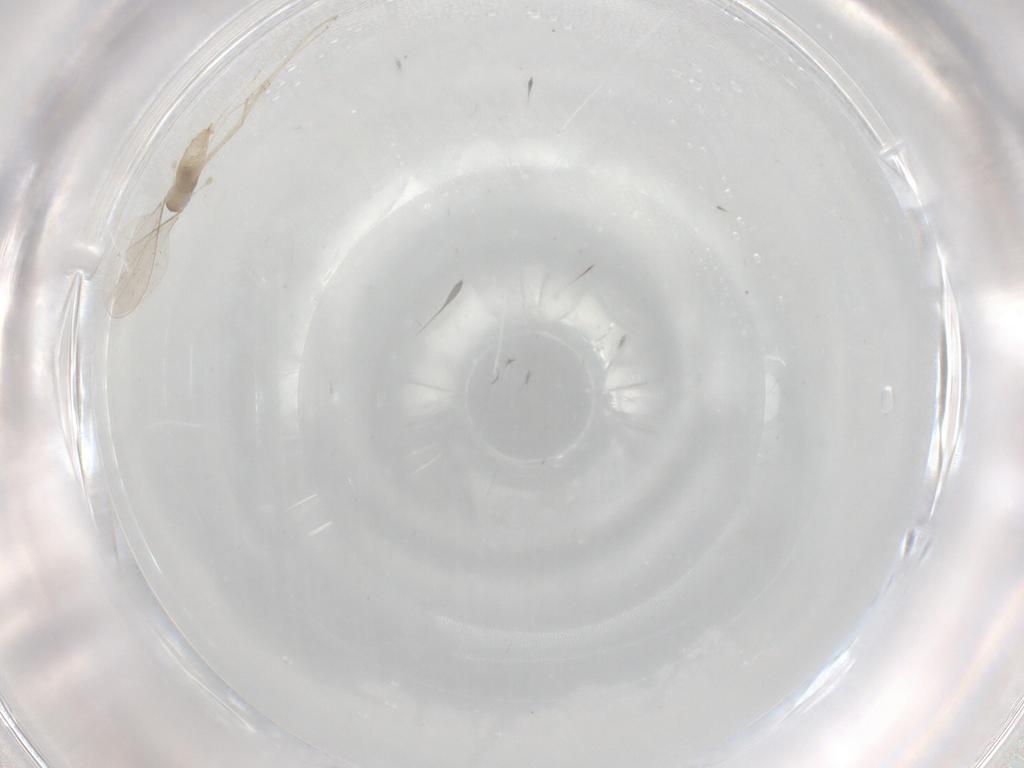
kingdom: Animalia
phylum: Arthropoda
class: Insecta
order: Diptera
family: Cecidomyiidae
